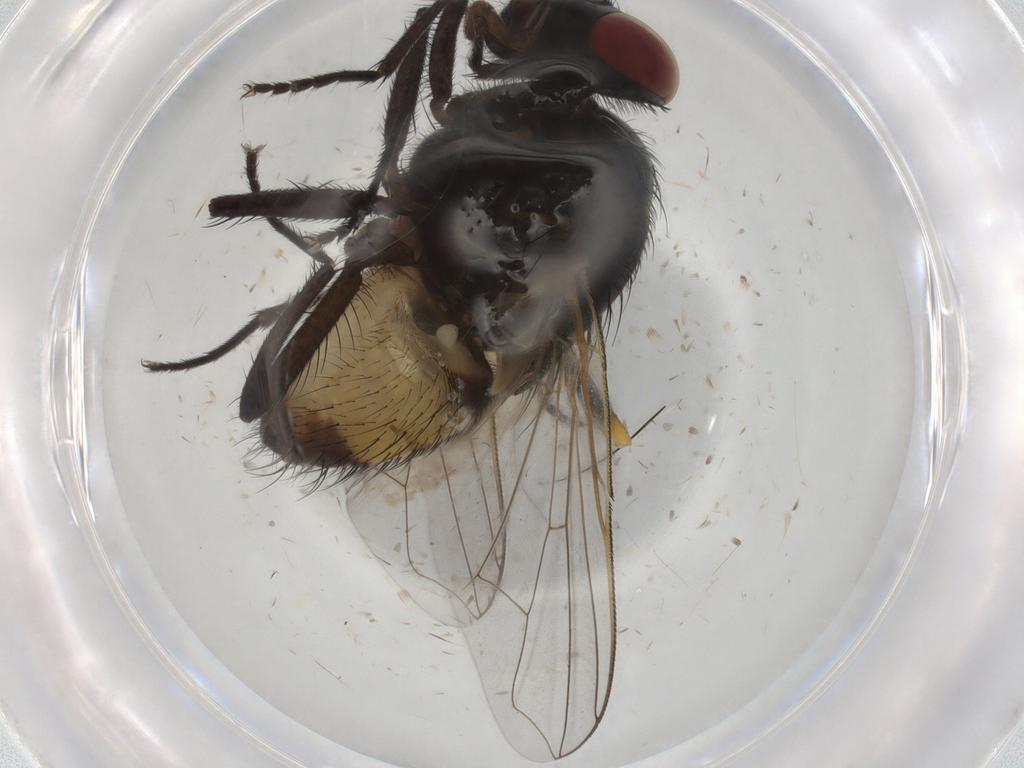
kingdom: Animalia
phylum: Arthropoda
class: Insecta
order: Diptera
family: Muscidae
